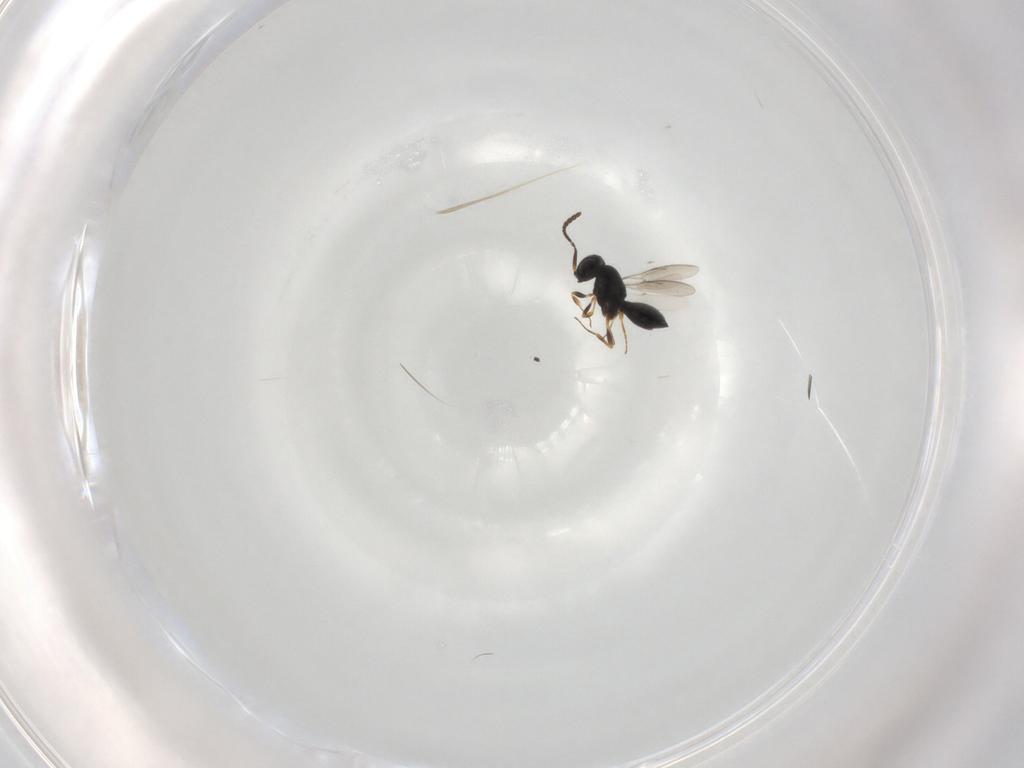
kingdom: Animalia
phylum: Arthropoda
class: Insecta
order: Hymenoptera
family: Scelionidae
